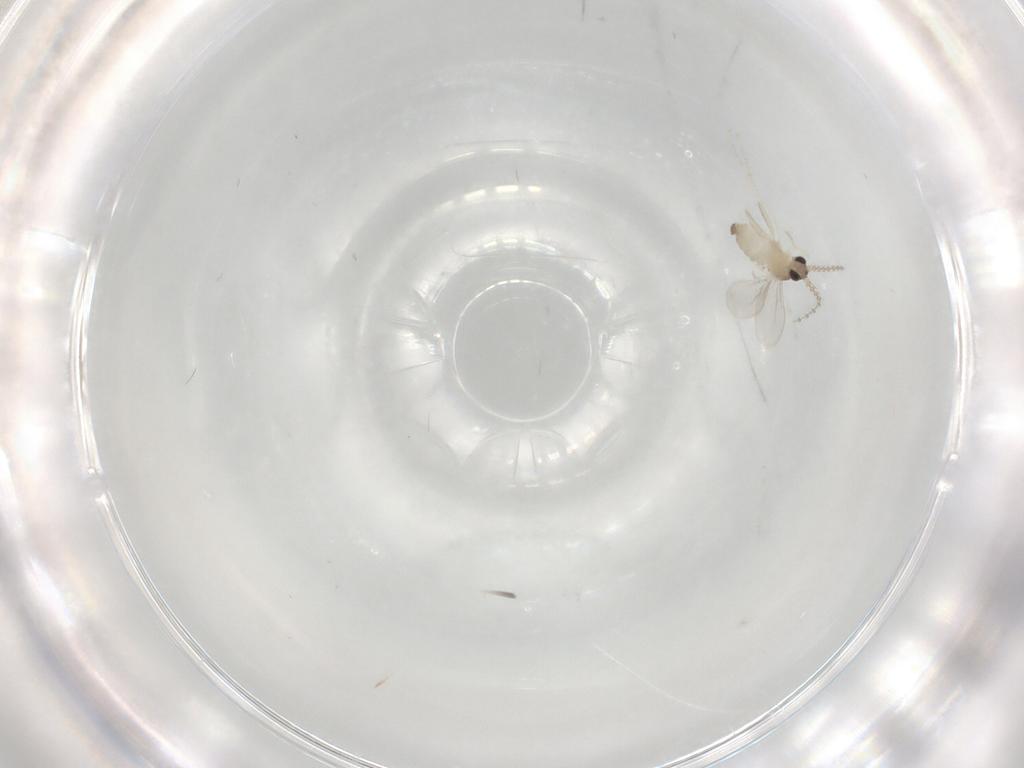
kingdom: Animalia
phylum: Arthropoda
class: Insecta
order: Diptera
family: Cecidomyiidae
